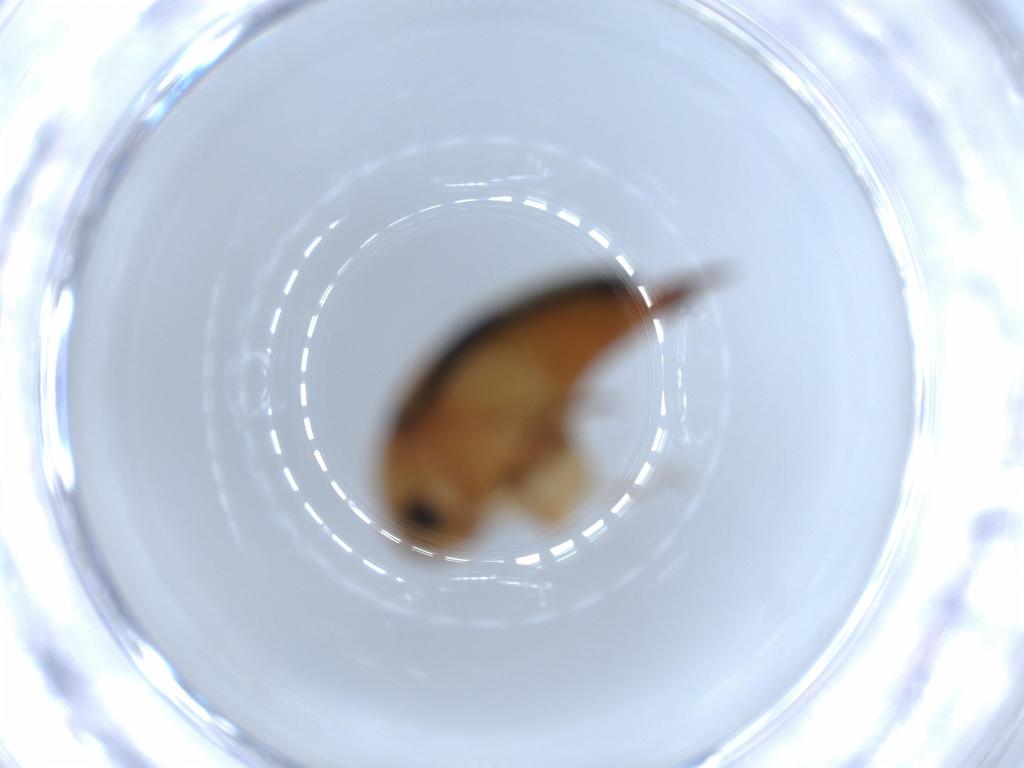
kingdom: Animalia
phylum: Arthropoda
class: Insecta
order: Coleoptera
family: Mordellidae
